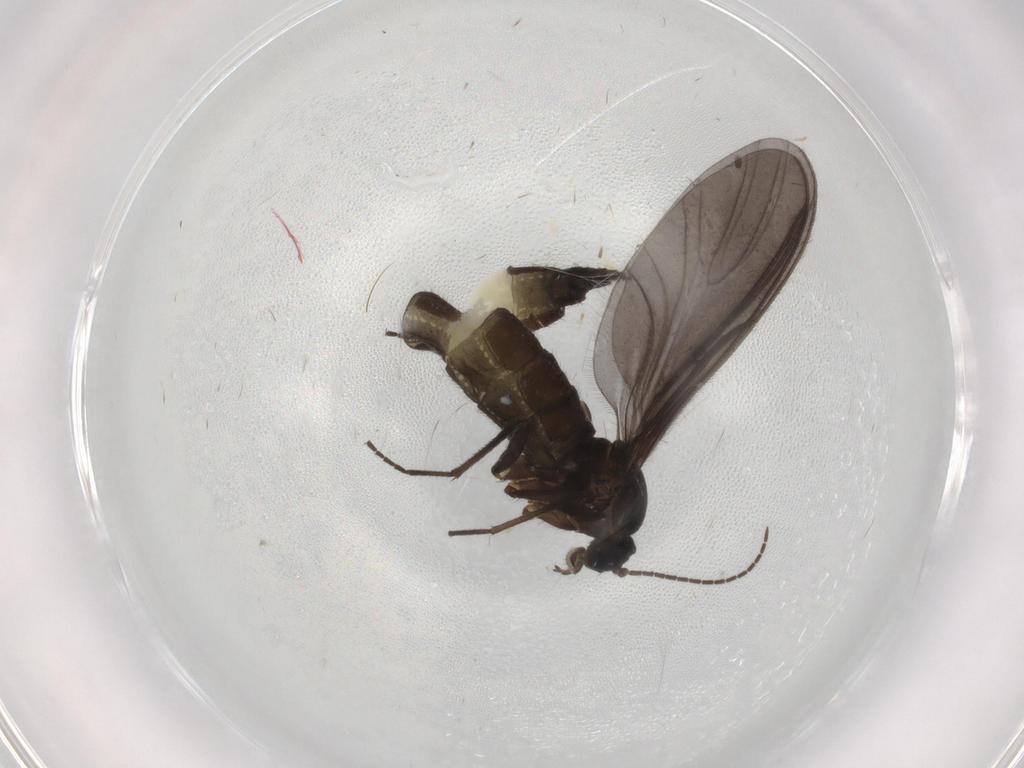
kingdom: Animalia
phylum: Arthropoda
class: Insecta
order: Diptera
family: Sciaridae
